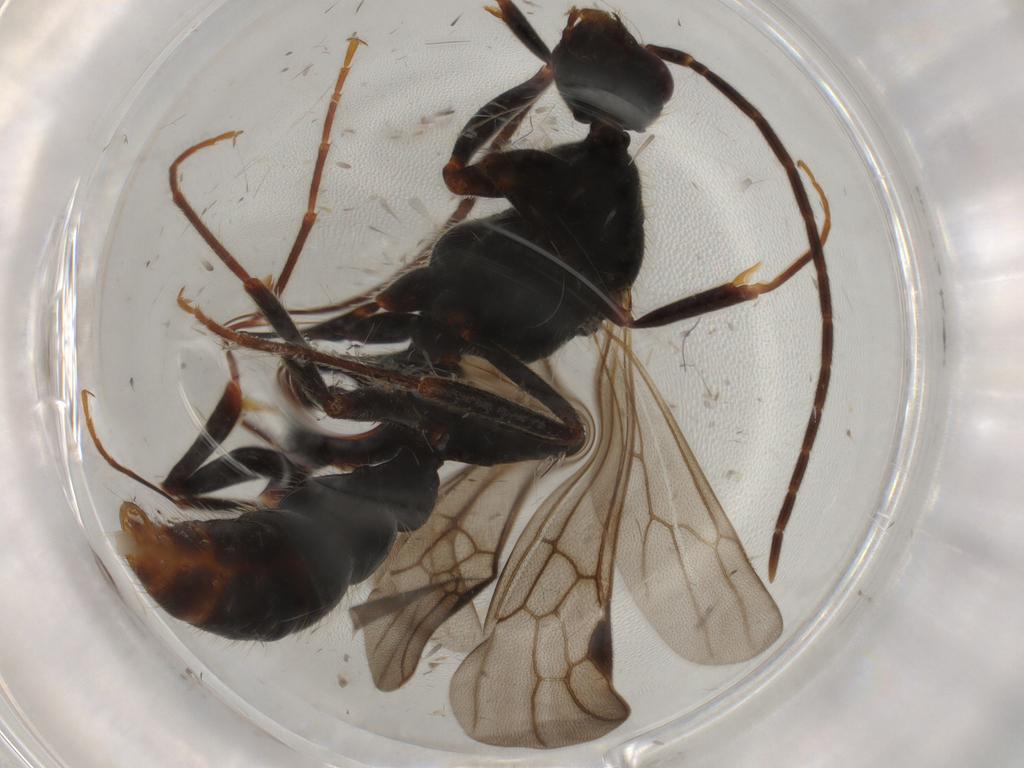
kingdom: Animalia
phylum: Arthropoda
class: Insecta
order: Hymenoptera
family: Formicidae
